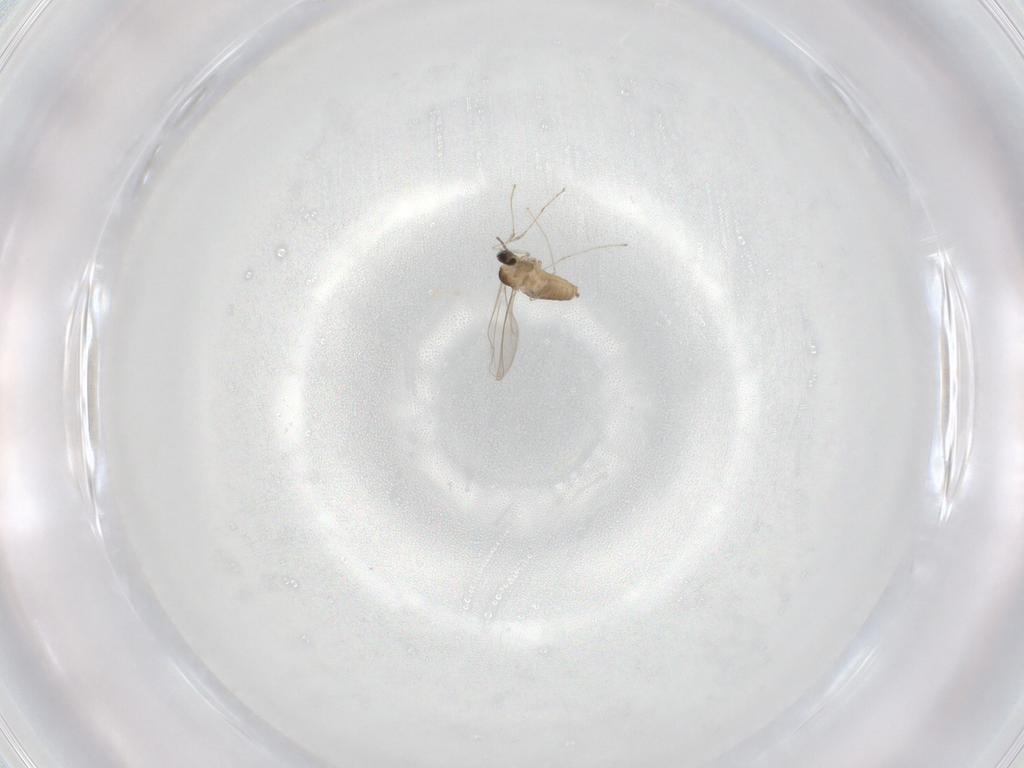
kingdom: Animalia
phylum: Arthropoda
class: Insecta
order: Diptera
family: Cecidomyiidae
